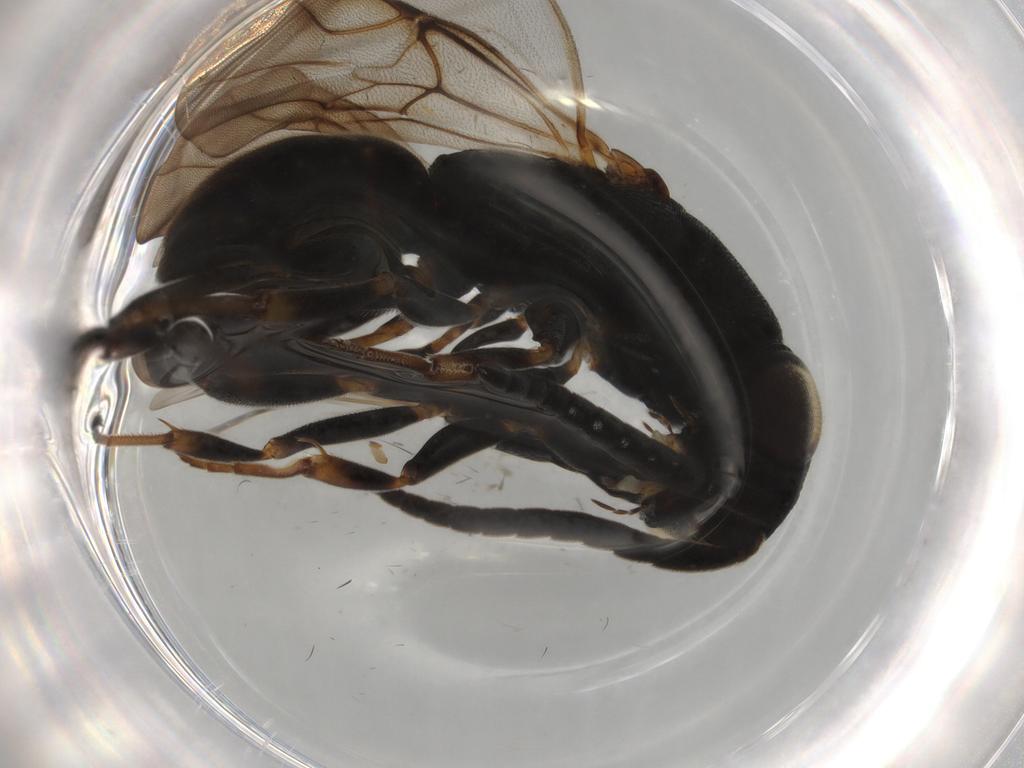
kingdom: Animalia
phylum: Arthropoda
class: Insecta
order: Hymenoptera
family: Chrysididae
